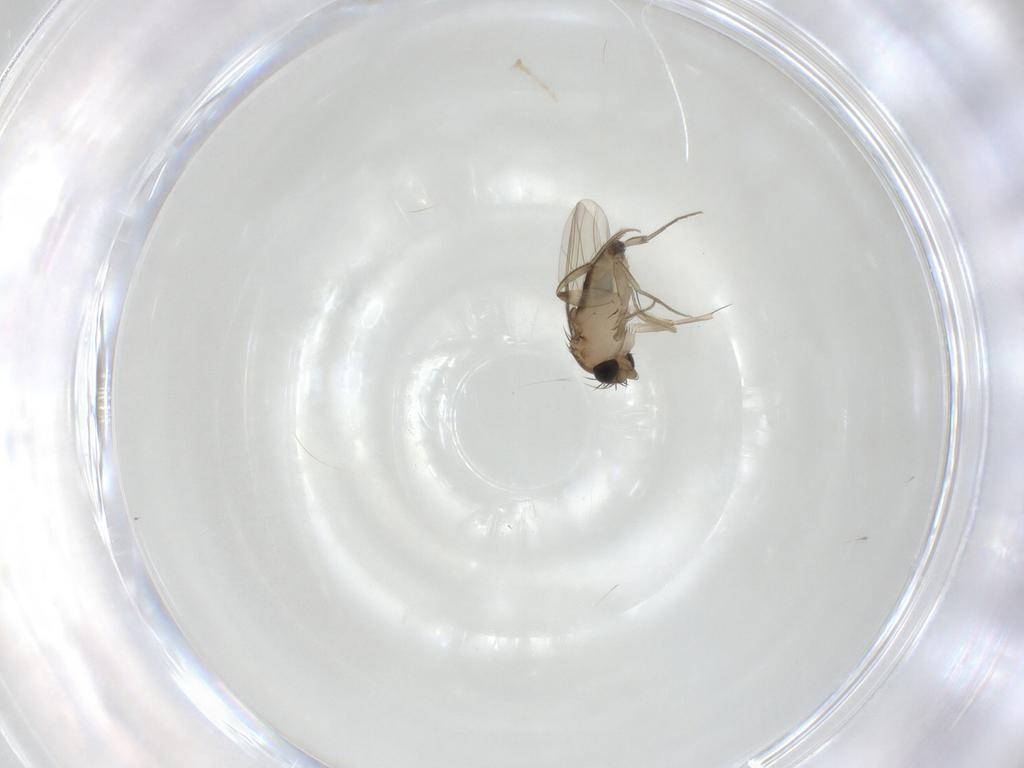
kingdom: Animalia
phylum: Arthropoda
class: Insecta
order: Diptera
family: Phoridae
